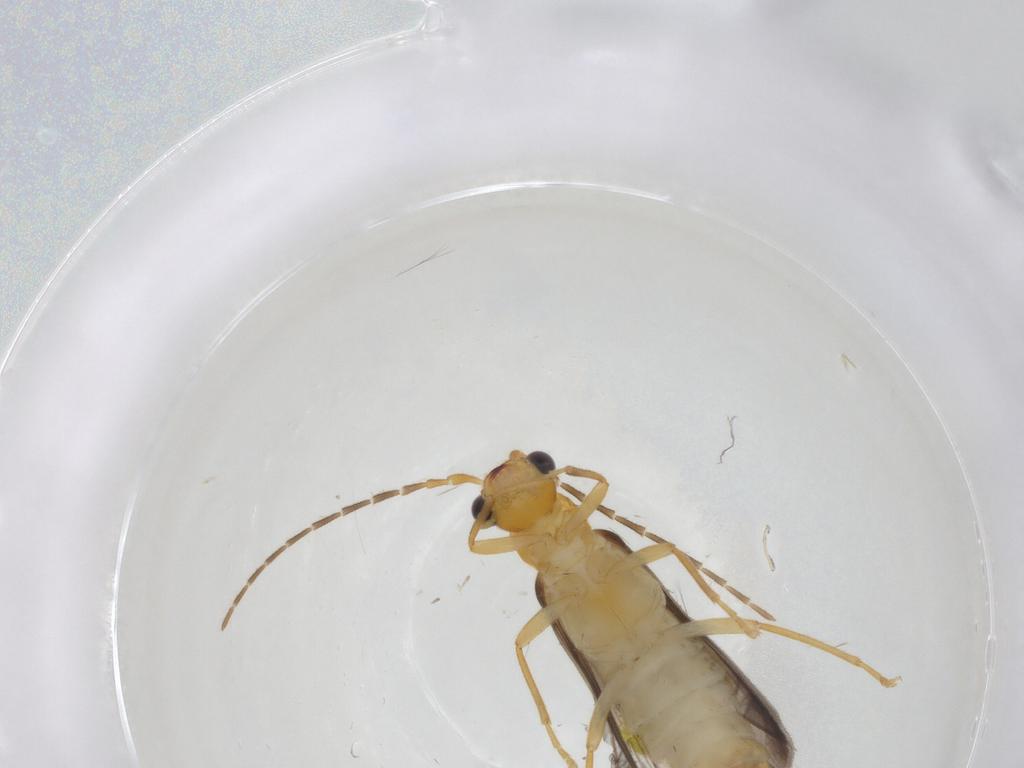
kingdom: Animalia
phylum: Arthropoda
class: Insecta
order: Coleoptera
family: Cantharidae
